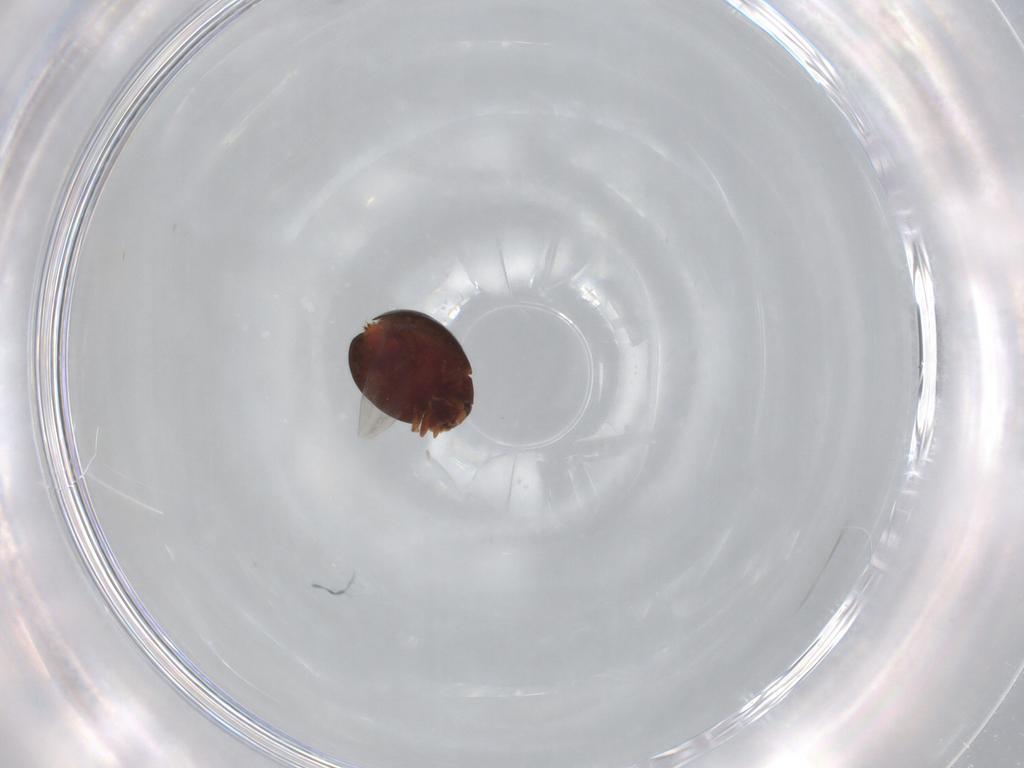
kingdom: Animalia
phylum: Arthropoda
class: Insecta
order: Coleoptera
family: Coccinellidae
